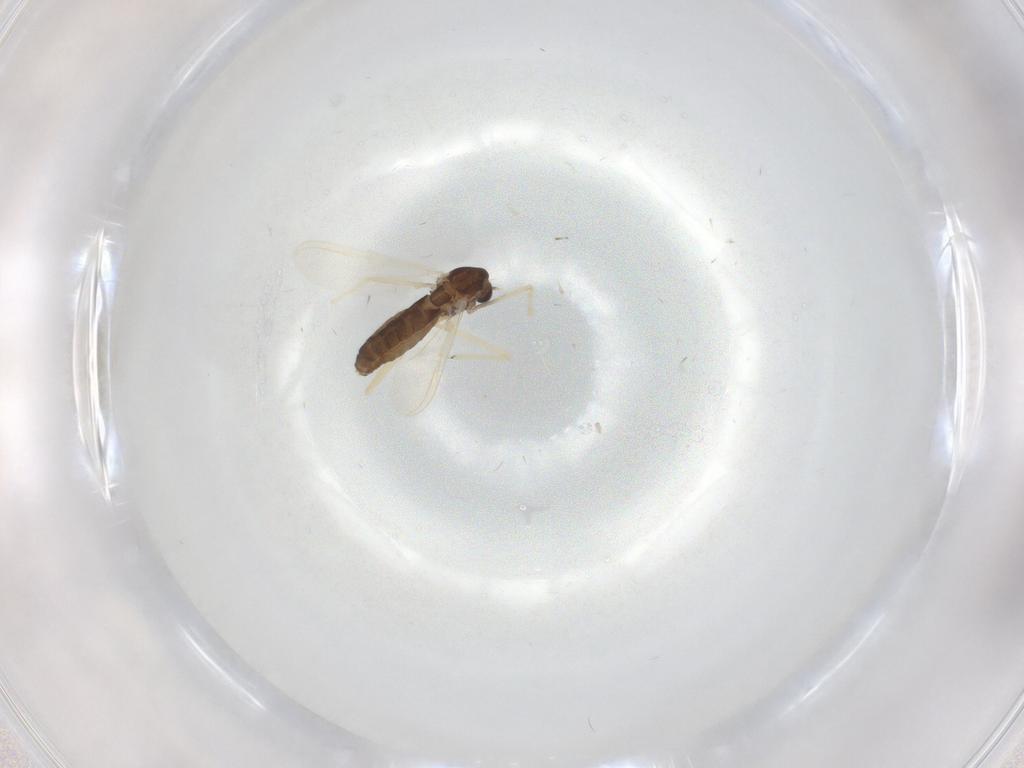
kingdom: Animalia
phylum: Arthropoda
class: Insecta
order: Diptera
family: Chironomidae
